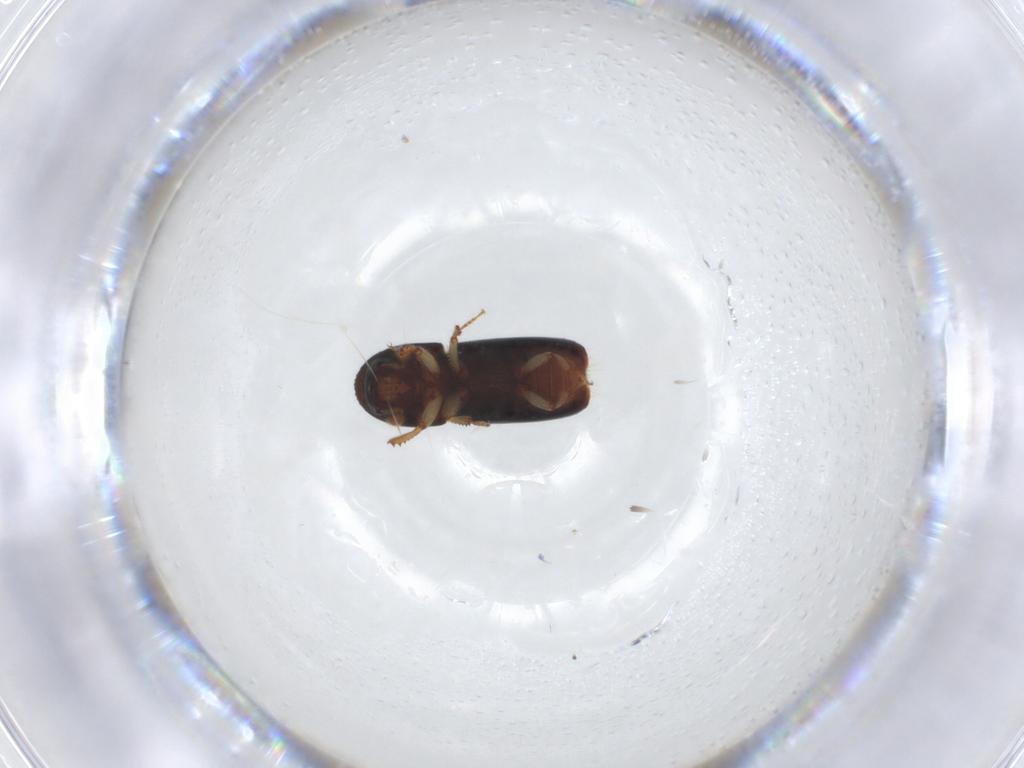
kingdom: Animalia
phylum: Arthropoda
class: Insecta
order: Coleoptera
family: Curculionidae
